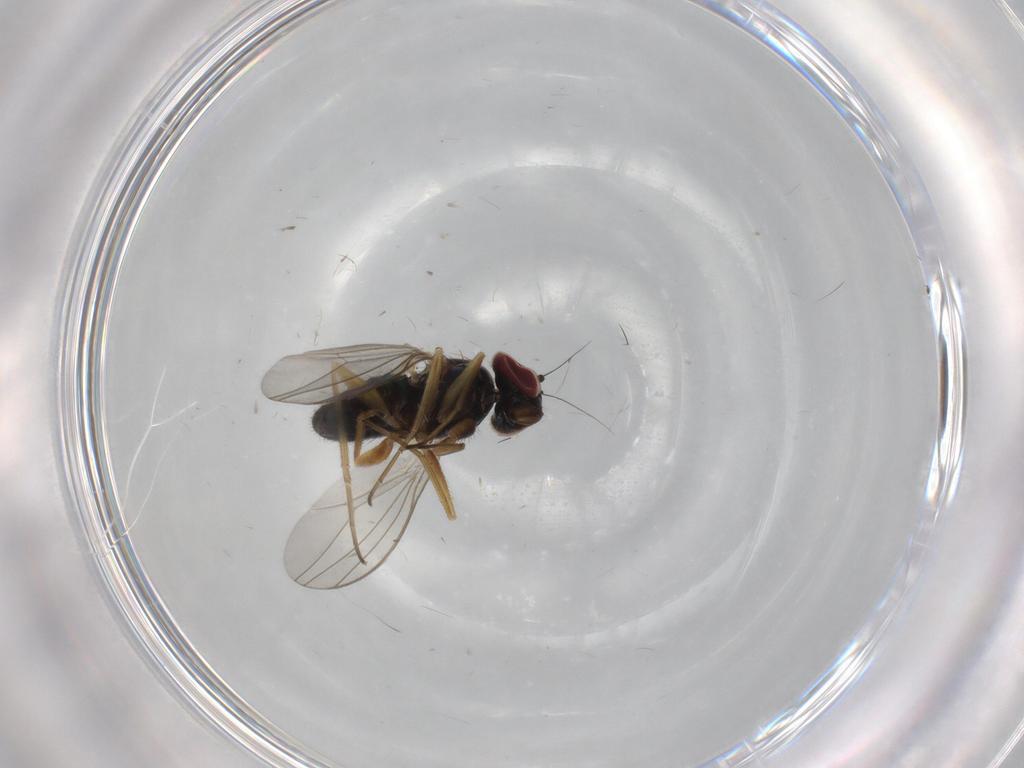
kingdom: Animalia
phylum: Arthropoda
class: Insecta
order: Diptera
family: Dolichopodidae
